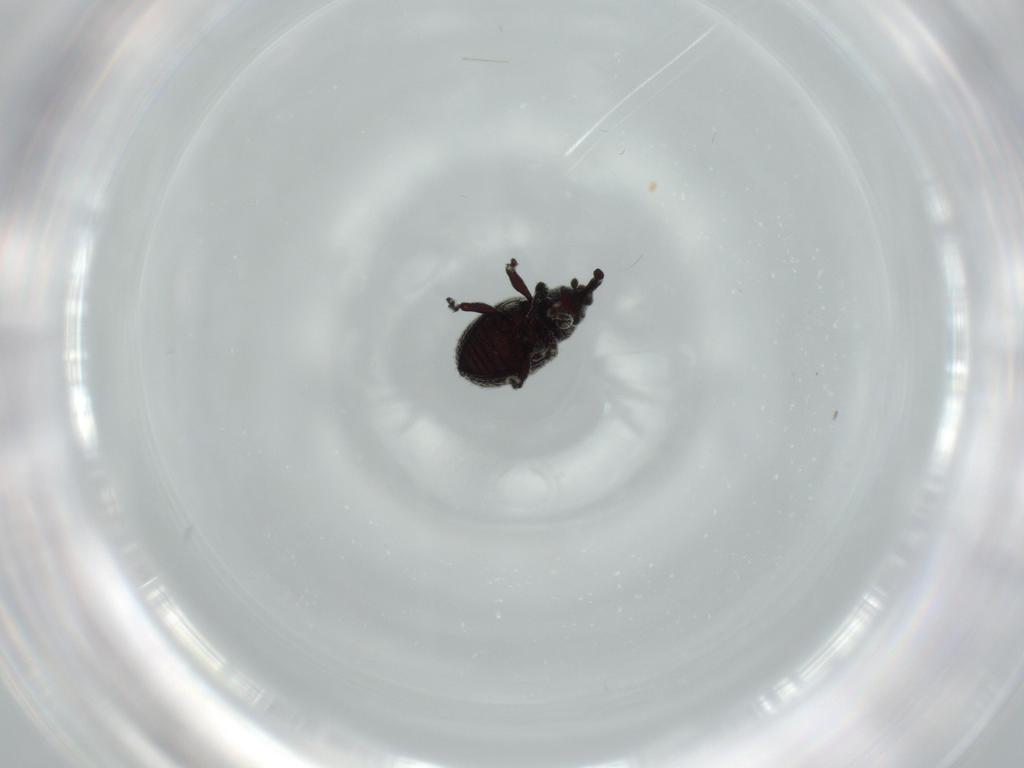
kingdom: Animalia
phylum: Arthropoda
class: Insecta
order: Coleoptera
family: Curculionidae
